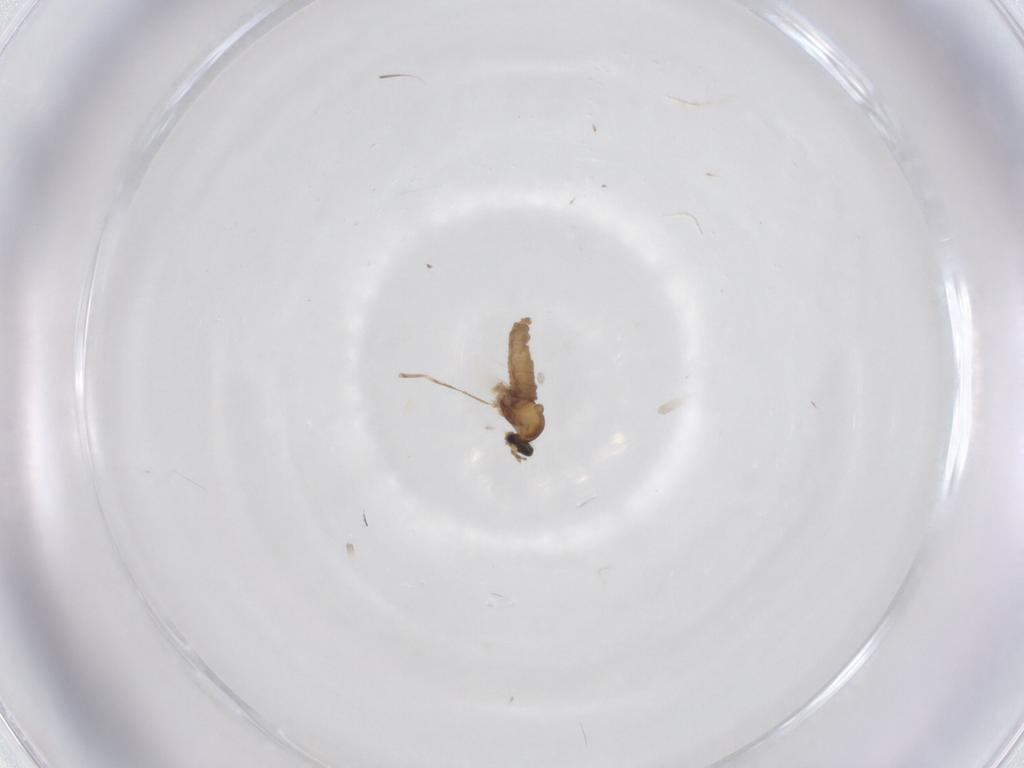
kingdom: Animalia
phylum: Arthropoda
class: Insecta
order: Diptera
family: Cecidomyiidae
